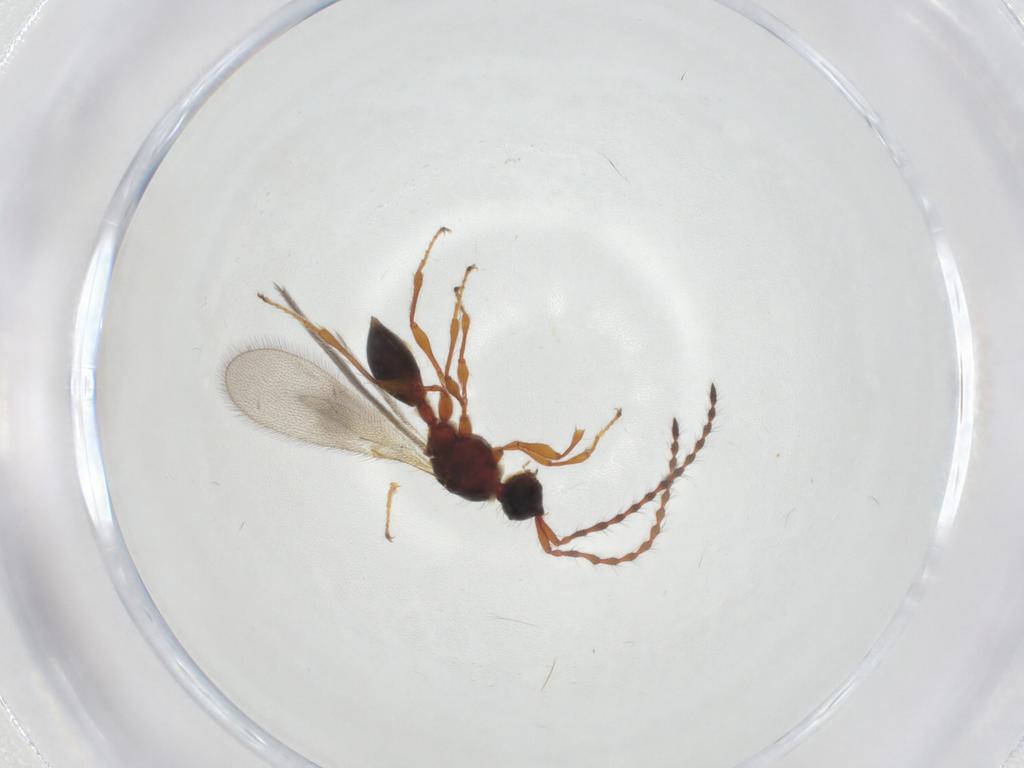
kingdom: Animalia
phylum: Arthropoda
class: Insecta
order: Hymenoptera
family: Diapriidae
